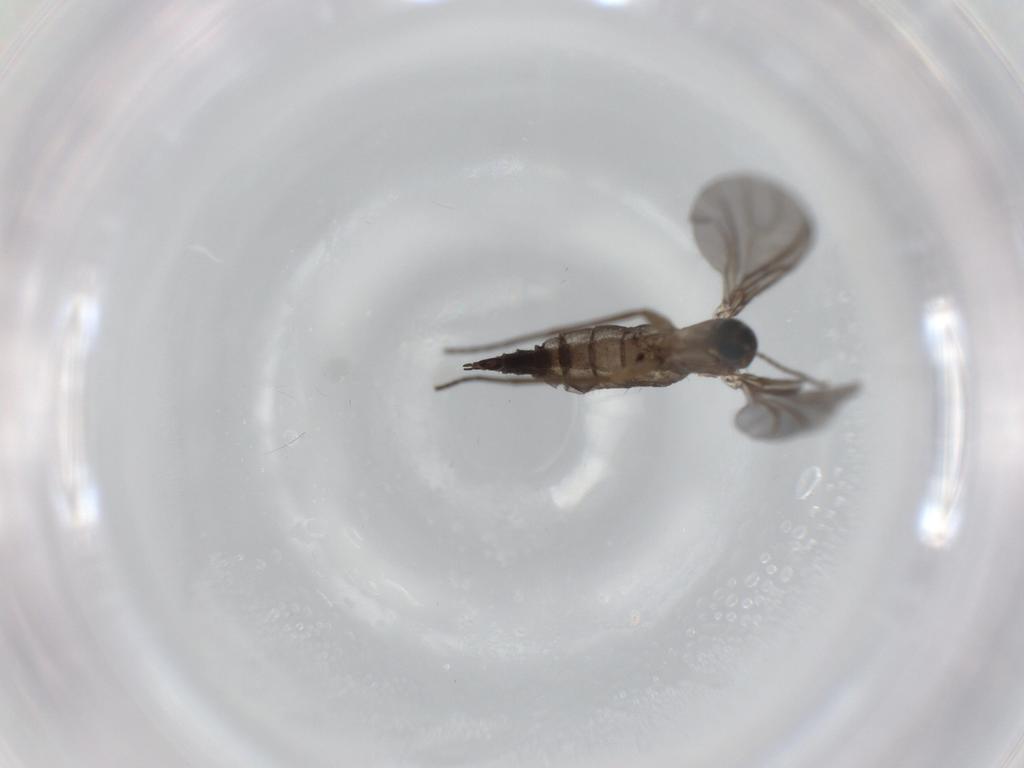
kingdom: Animalia
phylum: Arthropoda
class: Insecta
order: Diptera
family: Sciaridae
